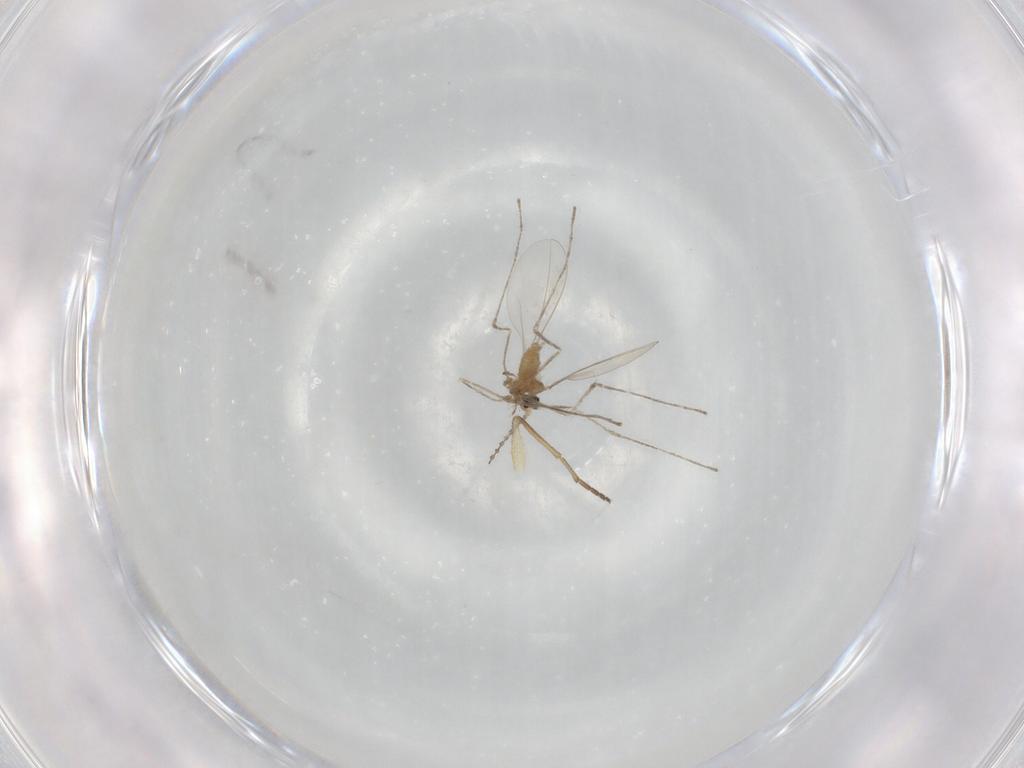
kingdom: Animalia
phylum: Arthropoda
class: Insecta
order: Diptera
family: Dolichopodidae
